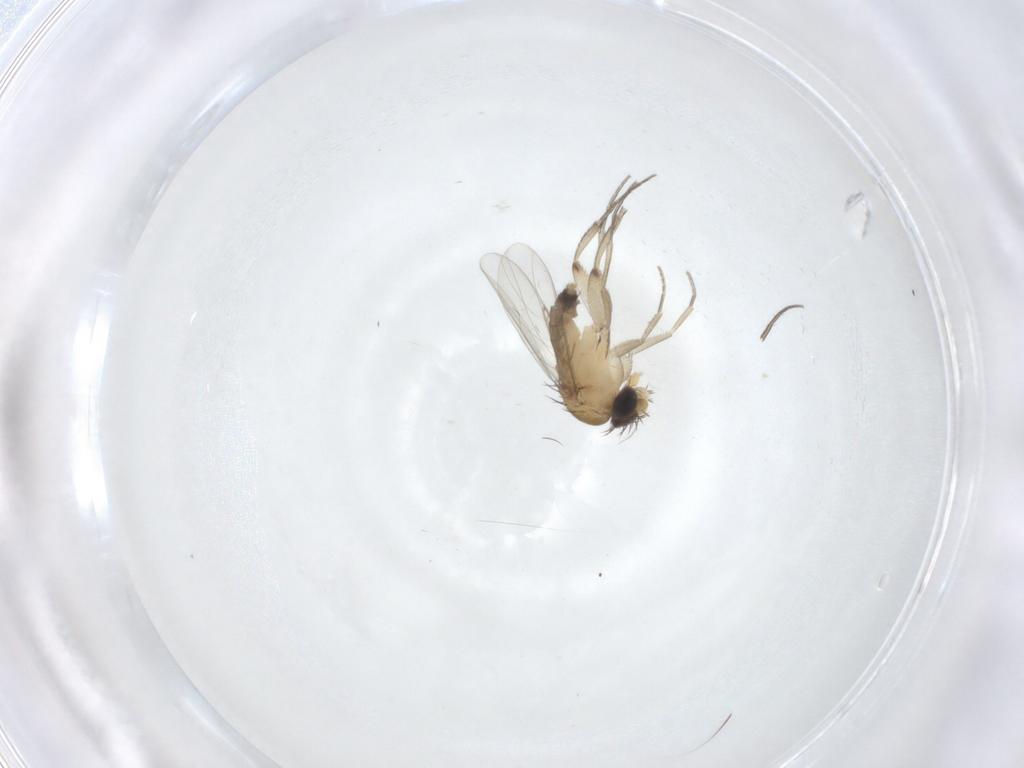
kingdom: Animalia
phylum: Arthropoda
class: Insecta
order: Diptera
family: Phoridae
